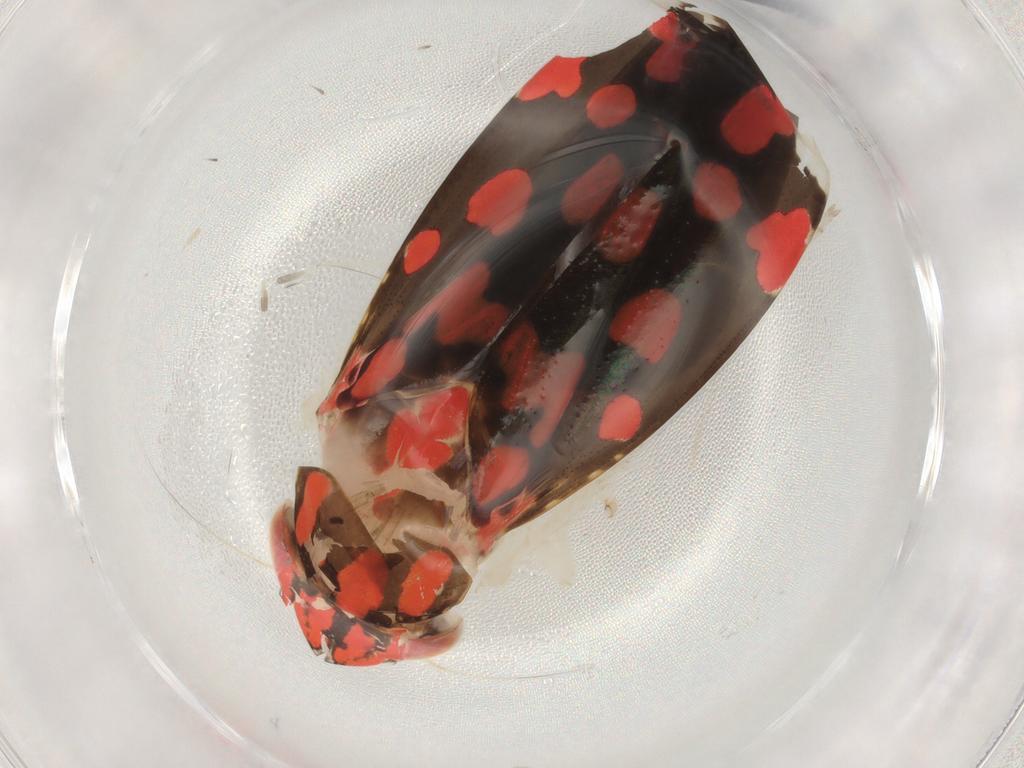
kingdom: Animalia
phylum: Arthropoda
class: Insecta
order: Hemiptera
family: Cicadellidae
